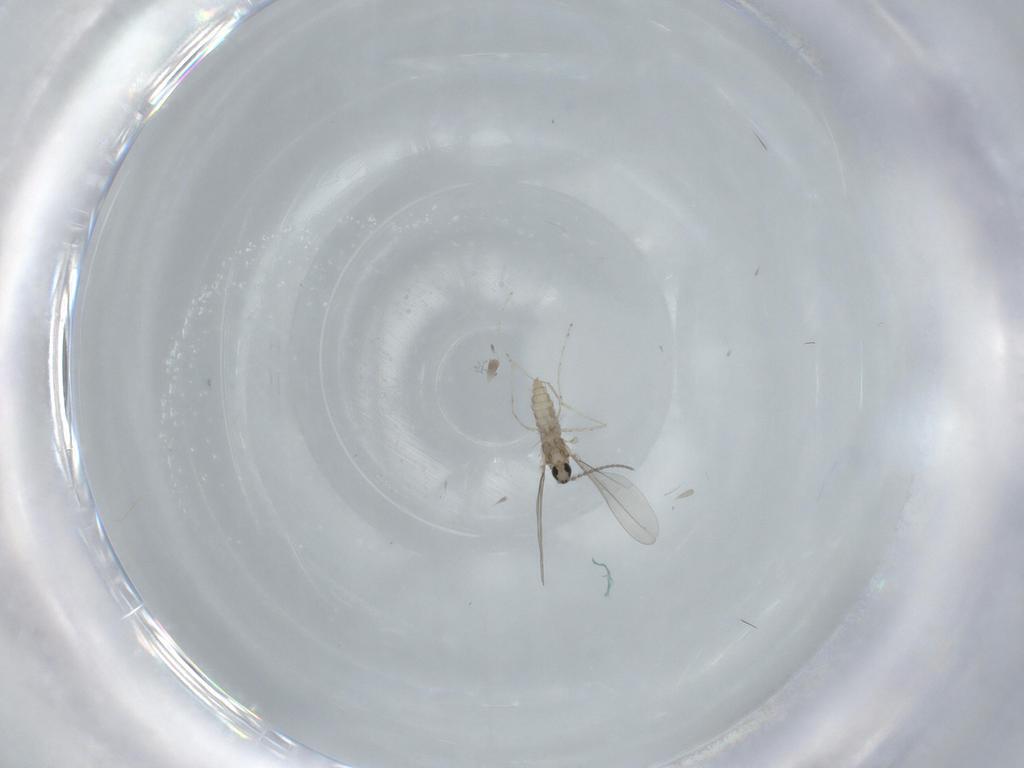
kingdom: Animalia
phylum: Arthropoda
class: Insecta
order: Diptera
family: Cecidomyiidae
